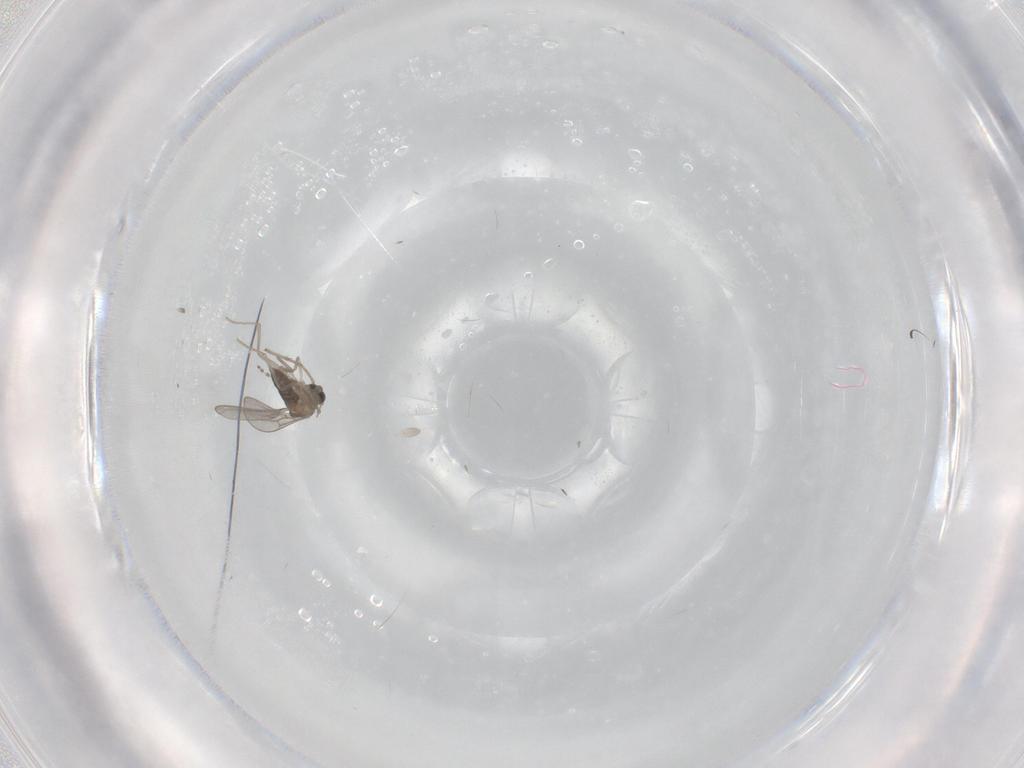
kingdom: Animalia
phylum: Arthropoda
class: Insecta
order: Diptera
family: Cecidomyiidae
